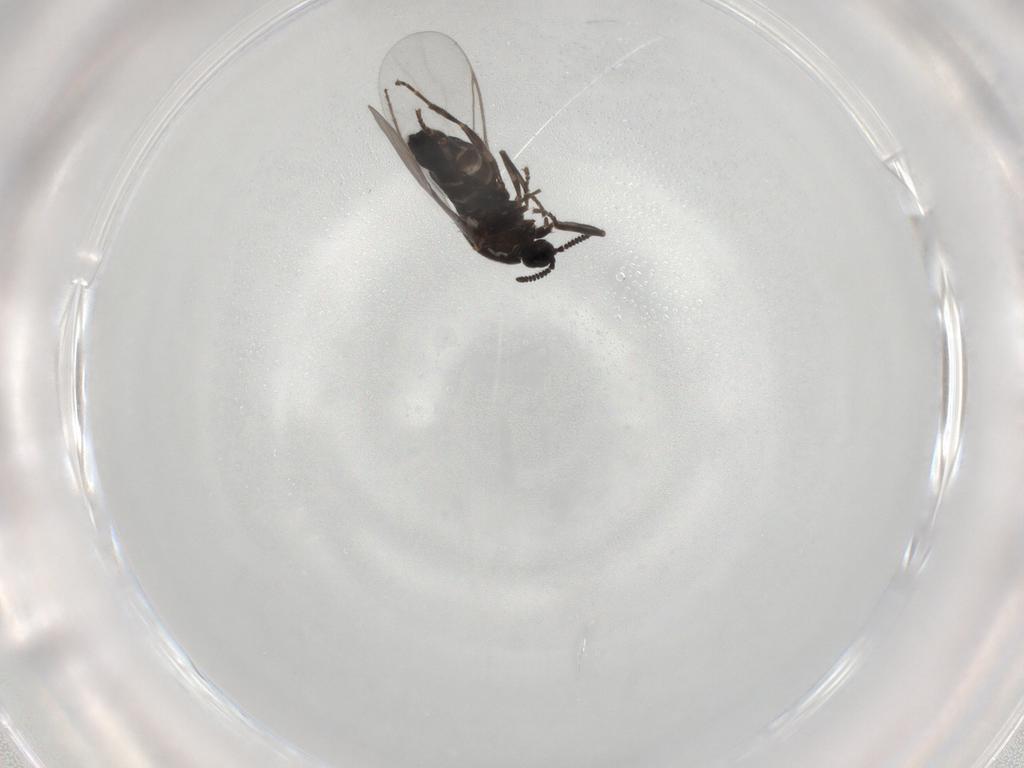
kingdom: Animalia
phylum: Arthropoda
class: Insecta
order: Diptera
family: Scatopsidae
